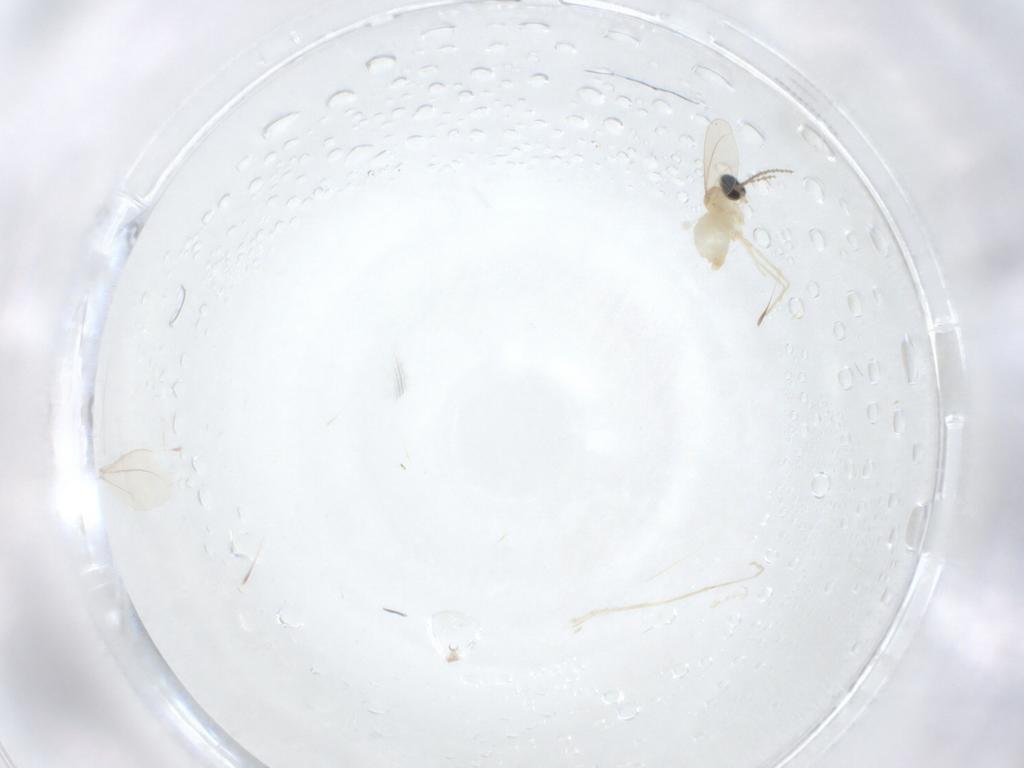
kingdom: Animalia
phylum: Arthropoda
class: Insecta
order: Diptera
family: Cecidomyiidae
